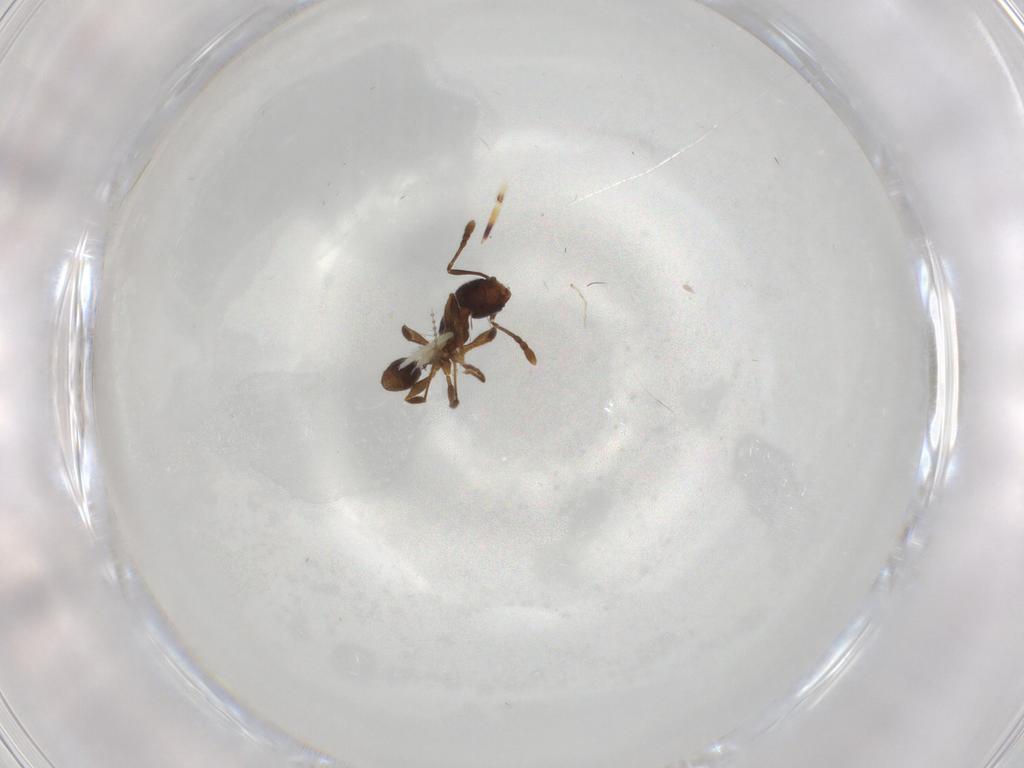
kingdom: Animalia
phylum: Arthropoda
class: Insecta
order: Hymenoptera
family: Formicidae
